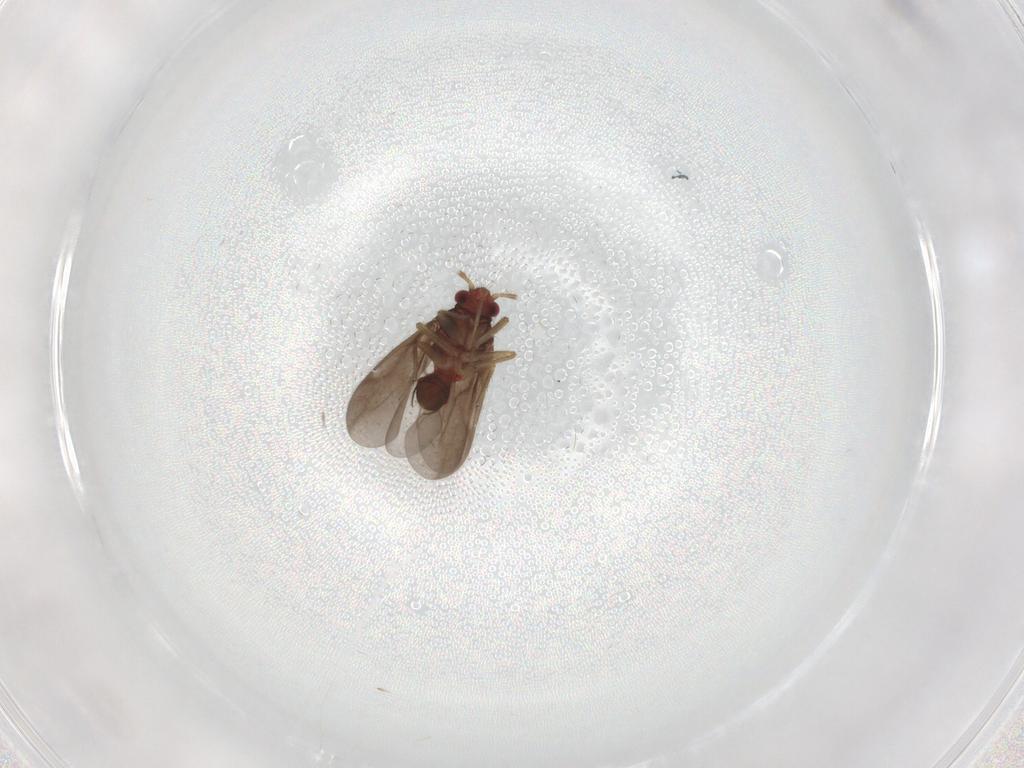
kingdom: Animalia
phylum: Arthropoda
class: Insecta
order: Hemiptera
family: Ceratocombidae
